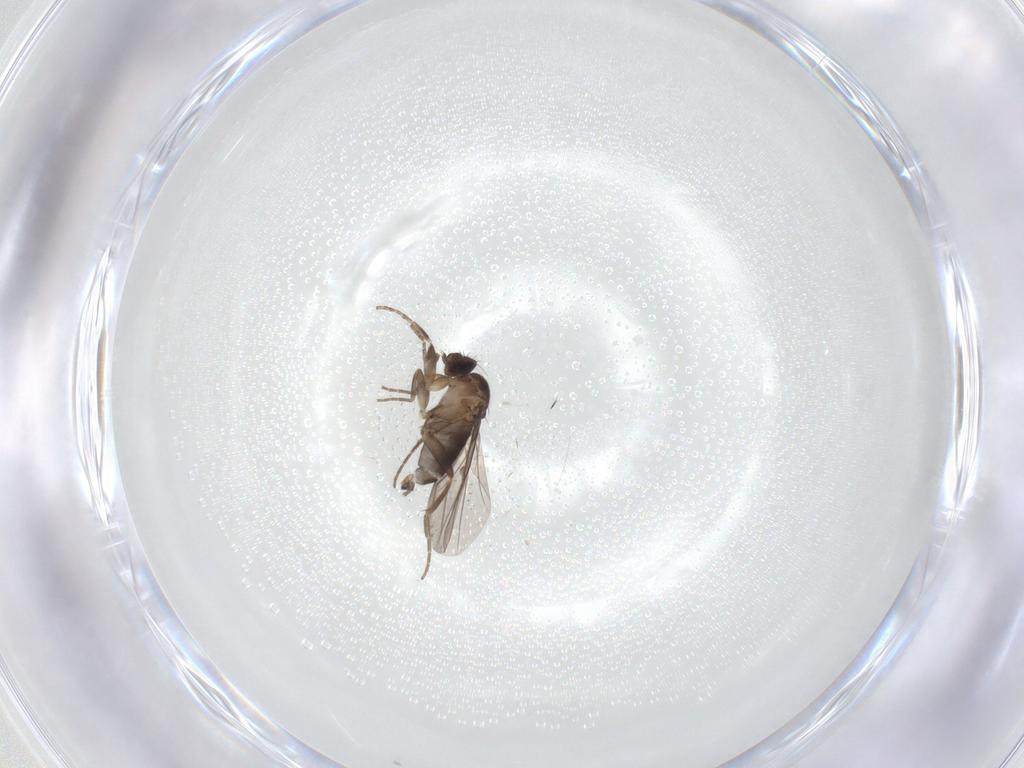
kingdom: Animalia
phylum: Arthropoda
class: Insecta
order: Diptera
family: Phoridae
